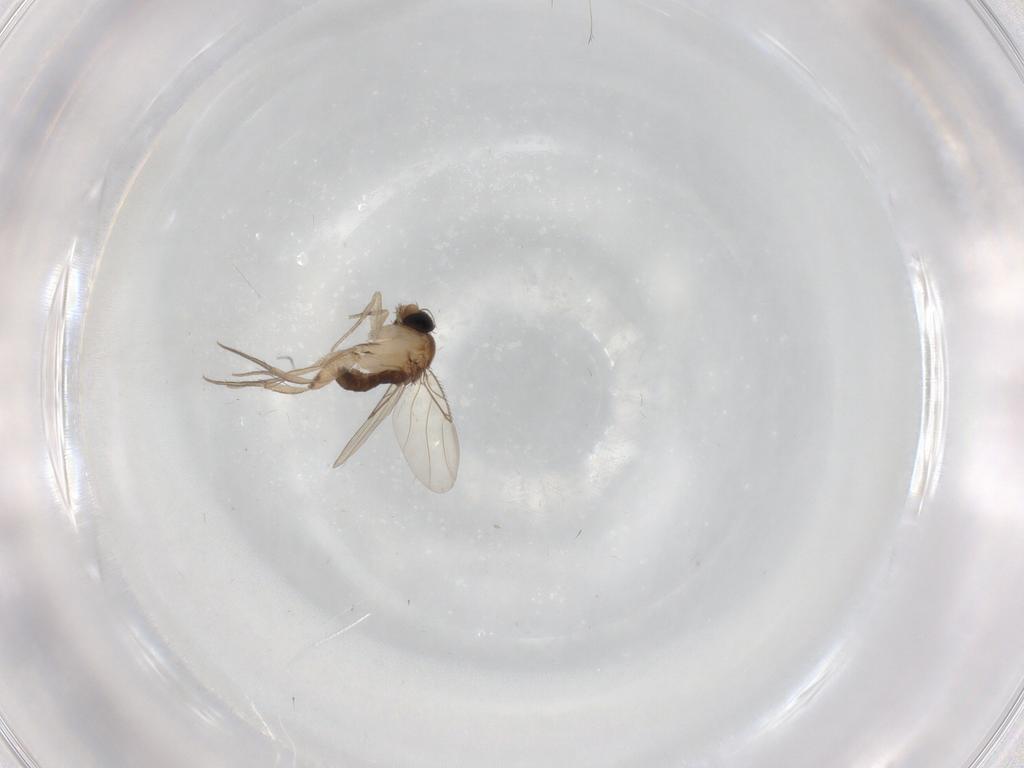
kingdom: Animalia
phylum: Arthropoda
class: Insecta
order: Diptera
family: Phoridae
